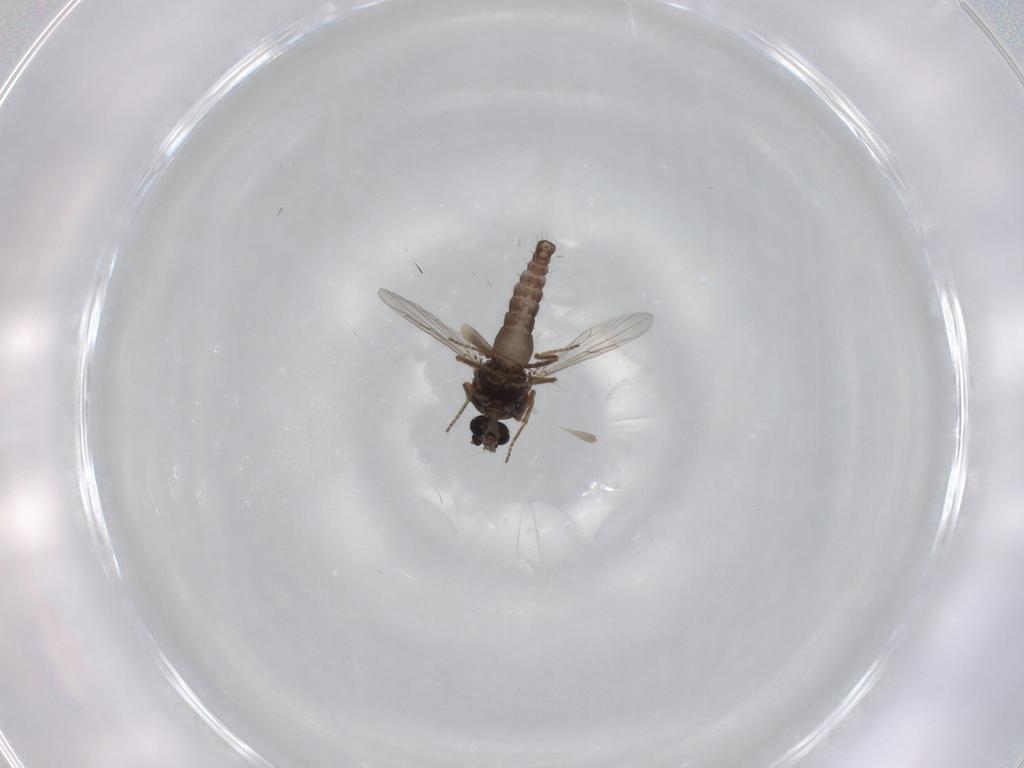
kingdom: Animalia
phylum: Arthropoda
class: Insecta
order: Diptera
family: Ceratopogonidae
